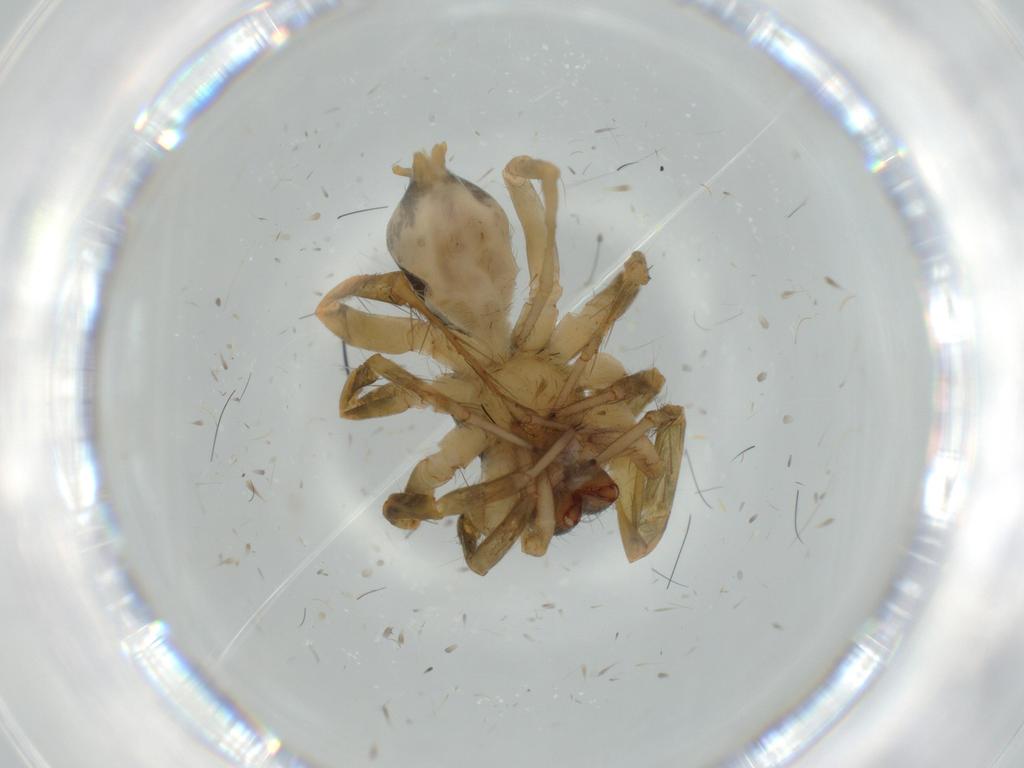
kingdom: Animalia
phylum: Arthropoda
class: Arachnida
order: Araneae
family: Lycosidae
